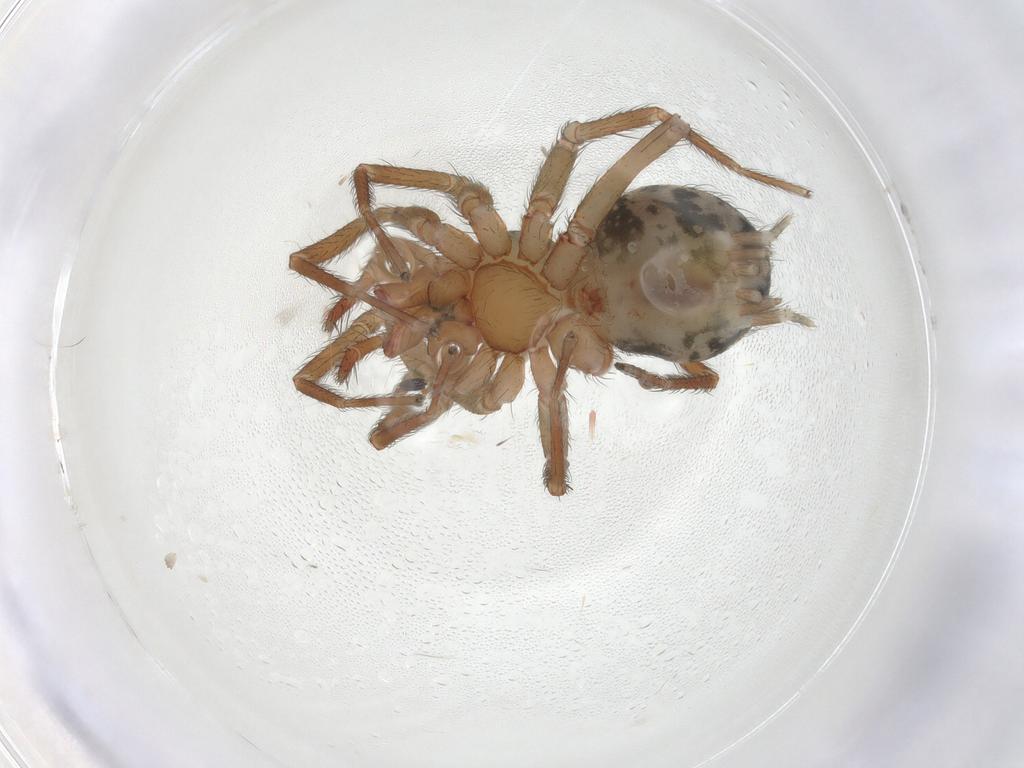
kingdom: Animalia
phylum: Arthropoda
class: Arachnida
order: Araneae
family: Hahniidae
